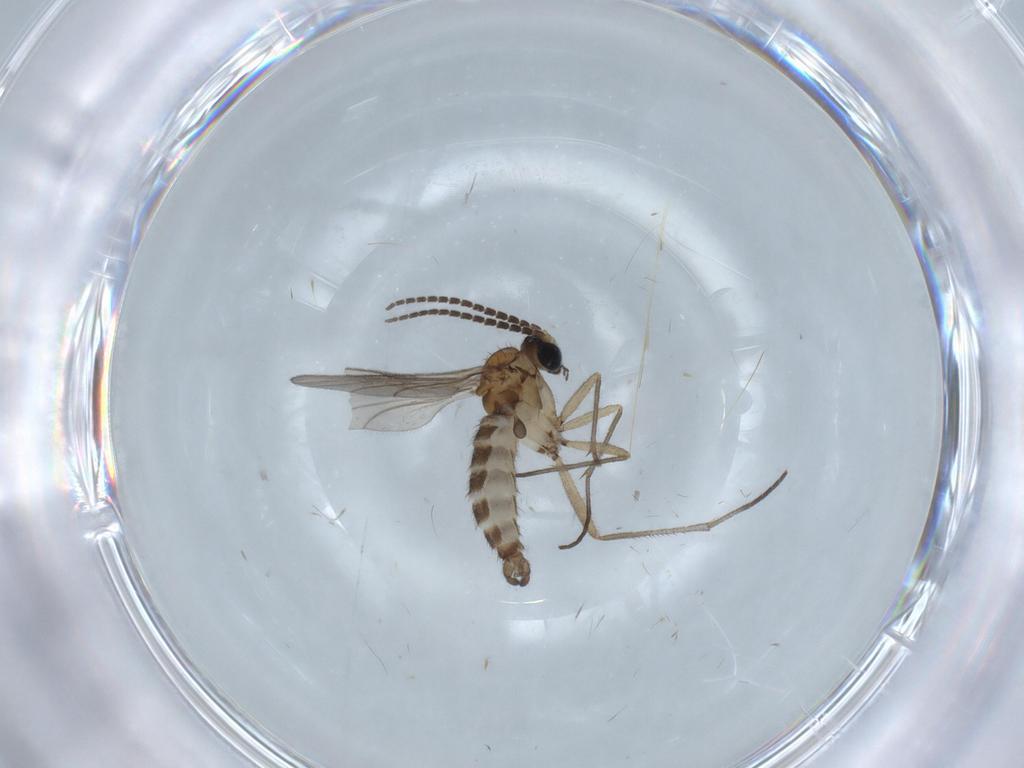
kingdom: Animalia
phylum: Arthropoda
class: Insecta
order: Diptera
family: Sciaridae
